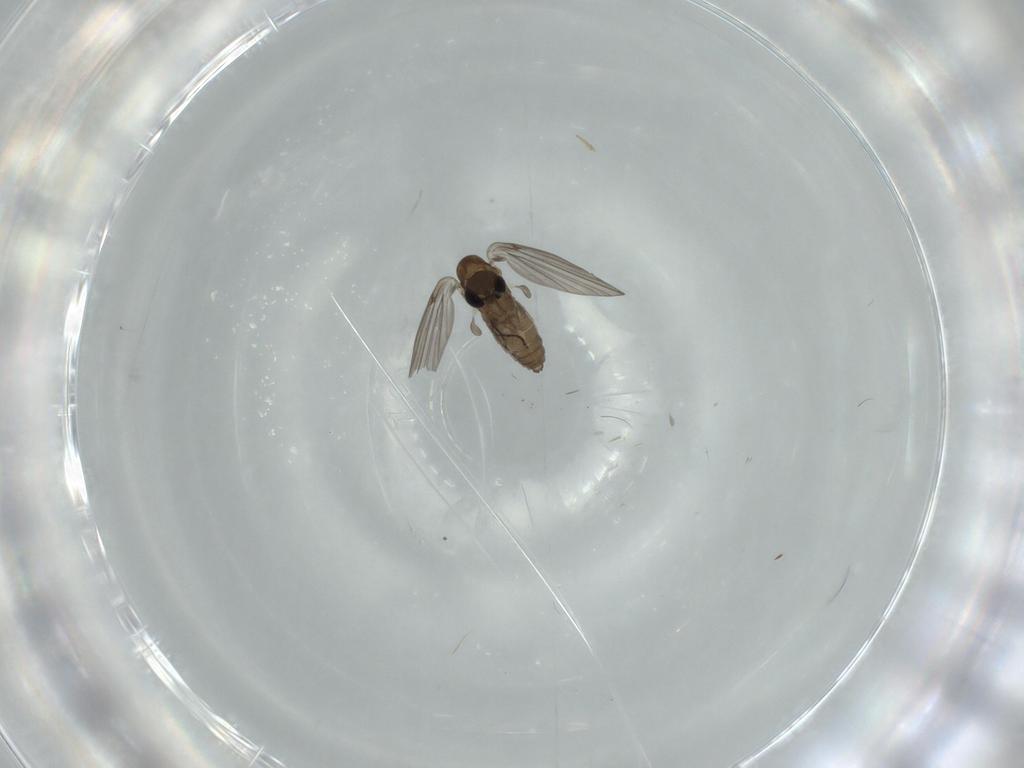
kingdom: Animalia
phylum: Arthropoda
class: Insecta
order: Diptera
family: Psychodidae
